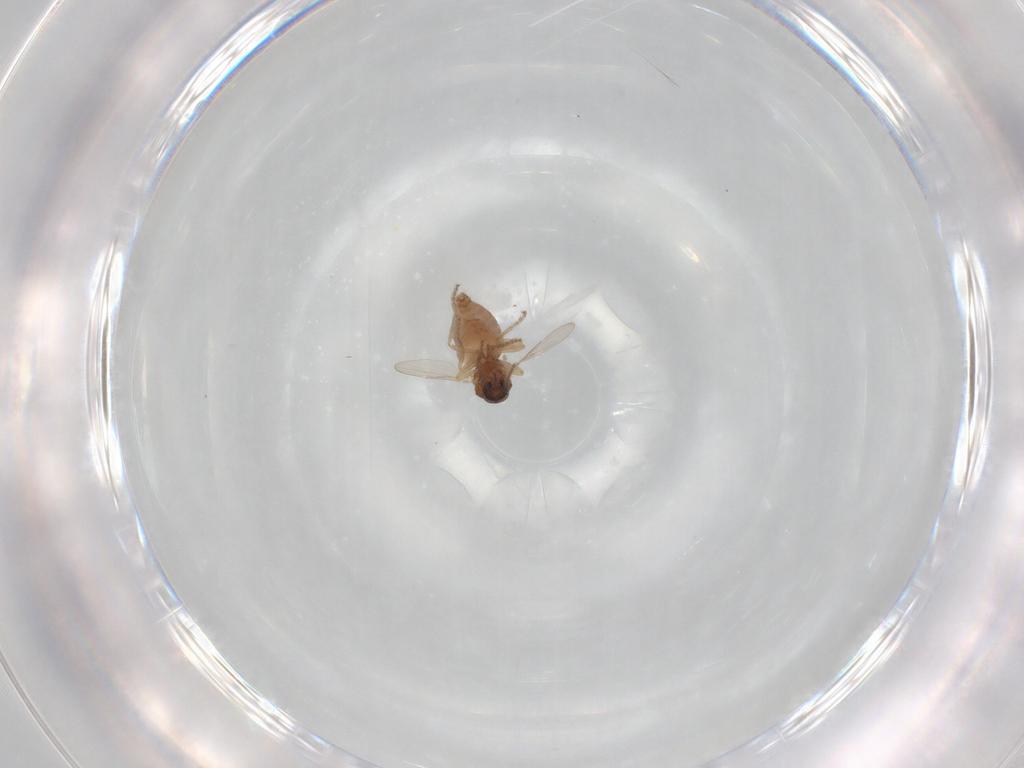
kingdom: Animalia
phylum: Arthropoda
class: Insecta
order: Diptera
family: Ceratopogonidae
